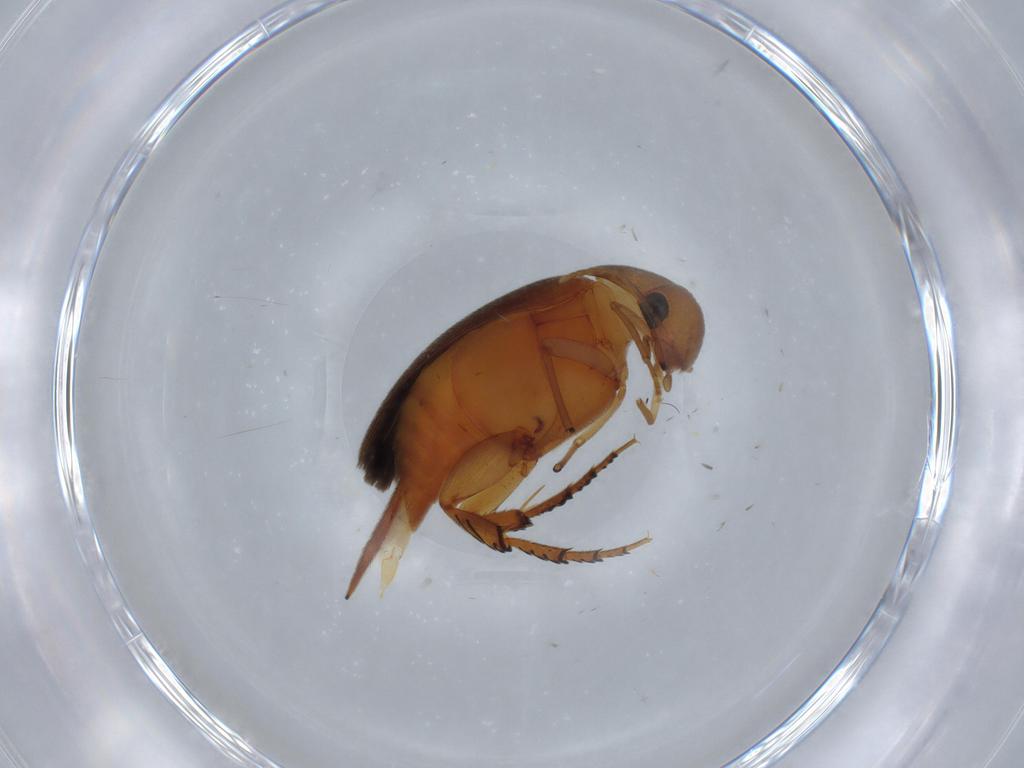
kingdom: Animalia
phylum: Arthropoda
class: Insecta
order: Coleoptera
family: Mordellidae
